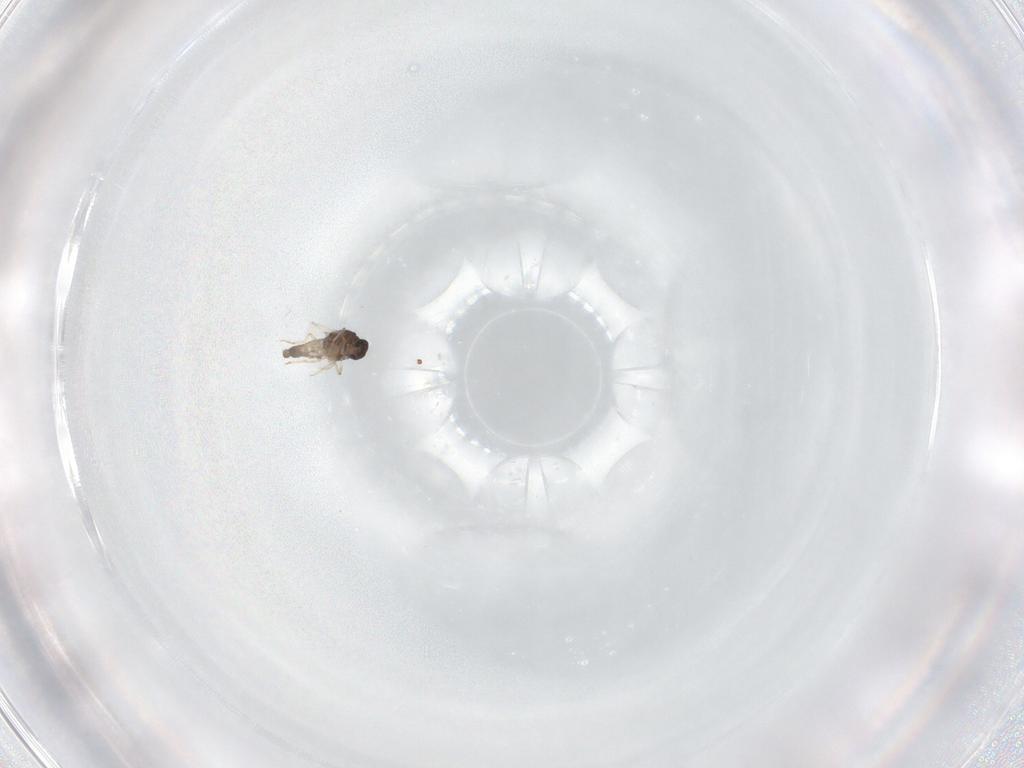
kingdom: Animalia
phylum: Arthropoda
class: Insecta
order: Diptera
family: Ceratopogonidae
